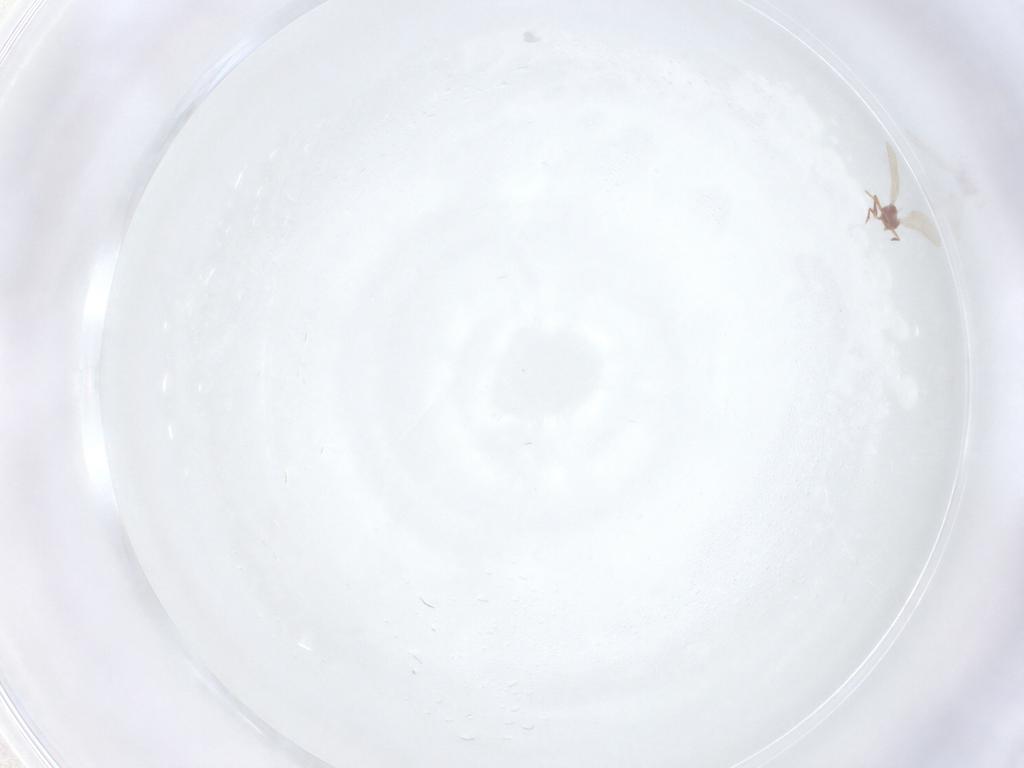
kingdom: Animalia
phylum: Arthropoda
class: Insecta
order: Hemiptera
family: Pseudococcidae
